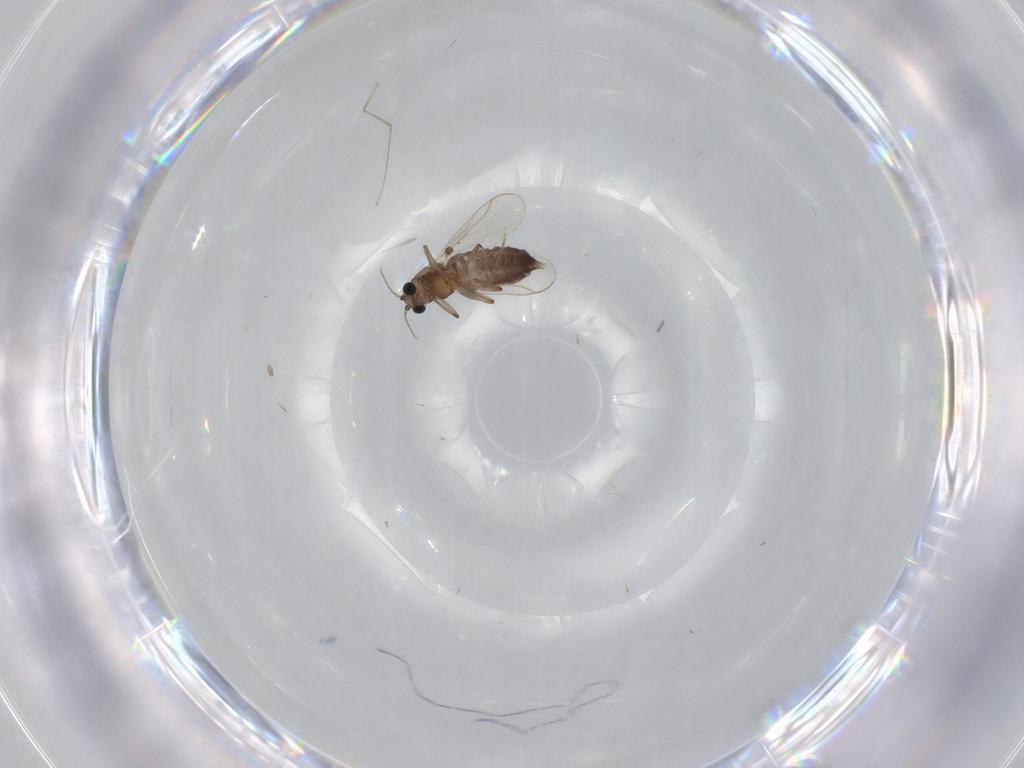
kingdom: Animalia
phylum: Arthropoda
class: Insecta
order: Diptera
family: Chironomidae
